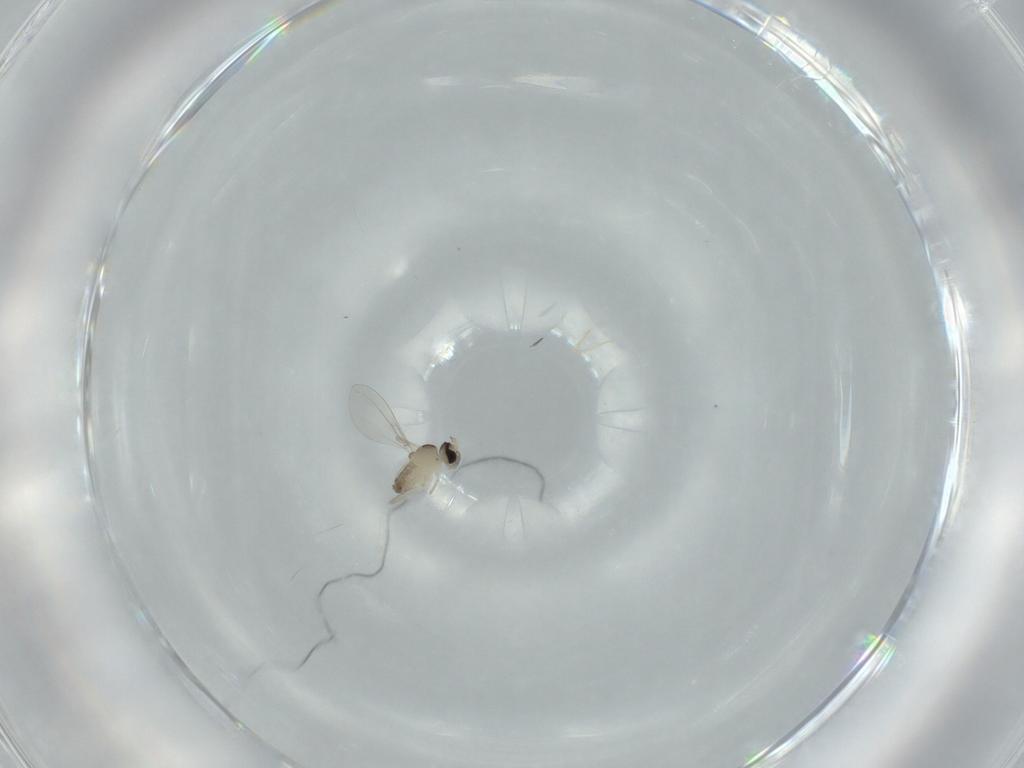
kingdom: Animalia
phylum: Arthropoda
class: Insecta
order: Diptera
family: Cecidomyiidae
